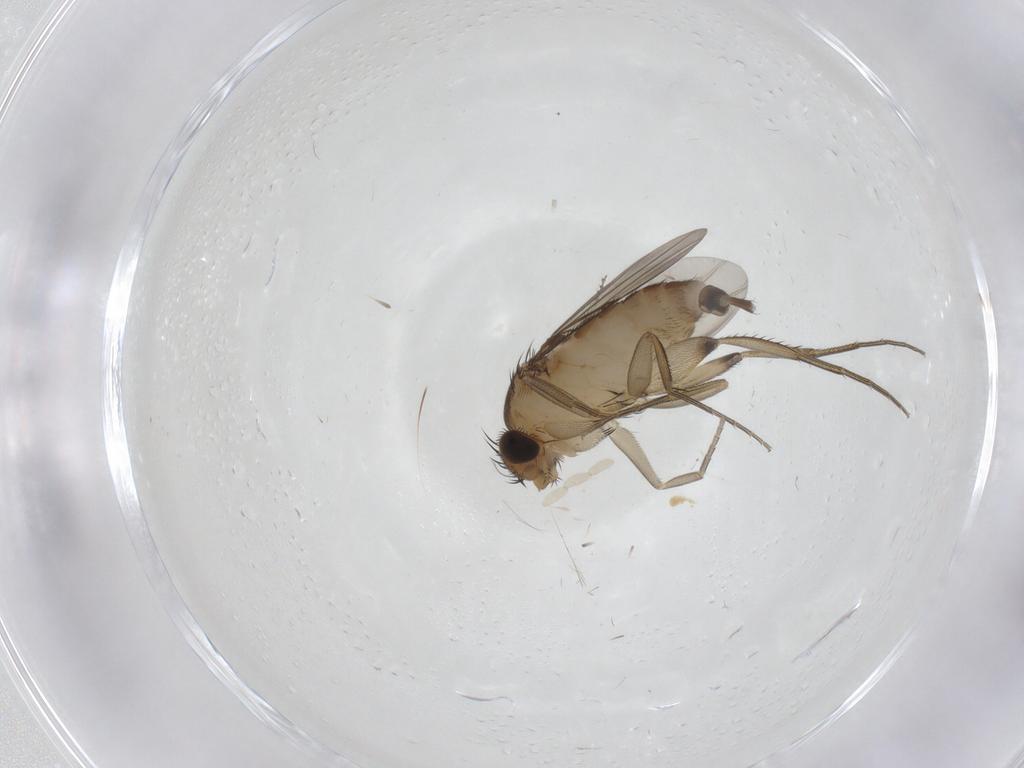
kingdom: Animalia
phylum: Arthropoda
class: Insecta
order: Diptera
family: Phoridae
